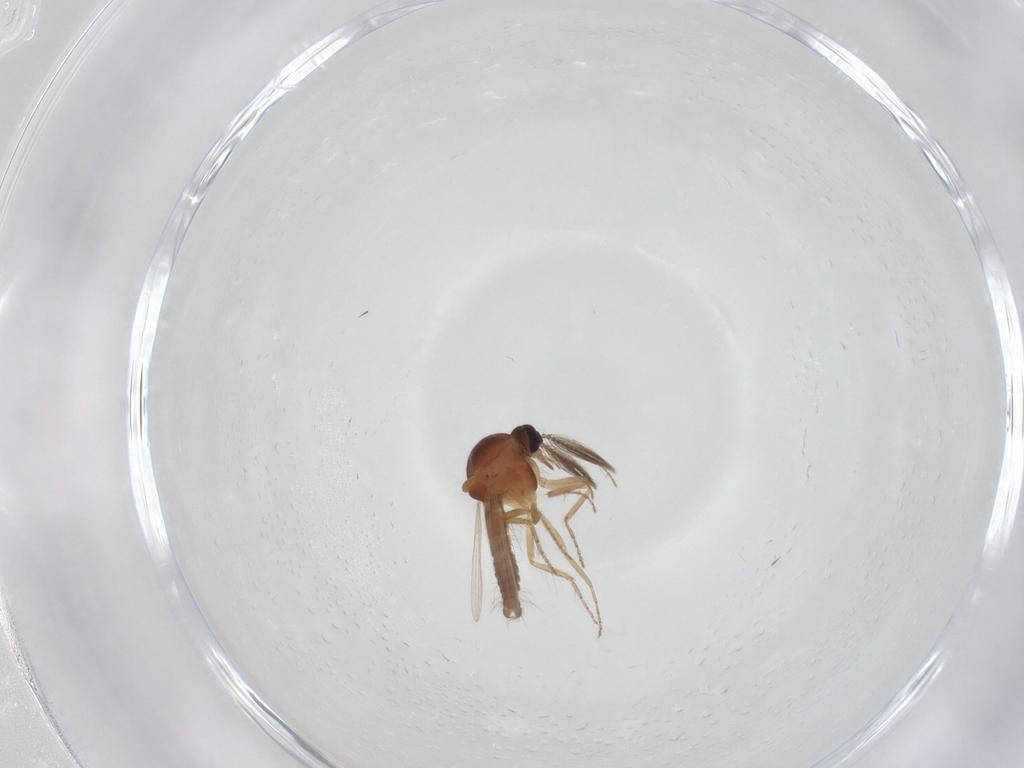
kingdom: Animalia
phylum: Arthropoda
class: Insecta
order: Diptera
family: Ceratopogonidae
